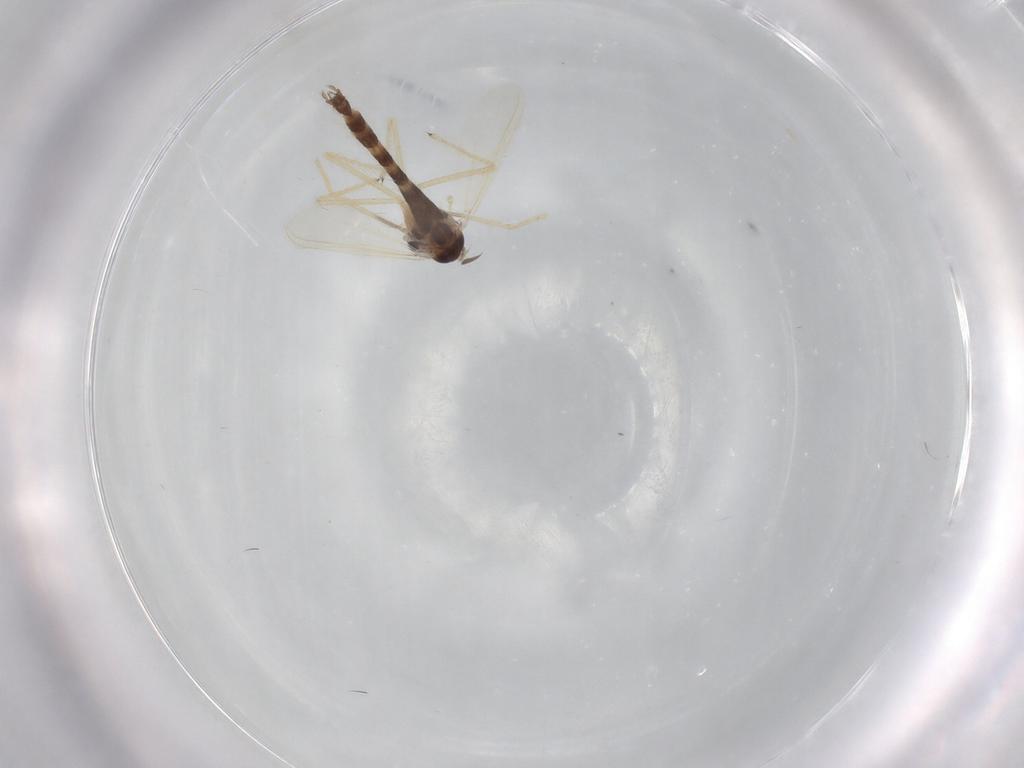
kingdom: Animalia
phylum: Arthropoda
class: Insecta
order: Diptera
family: Chironomidae
